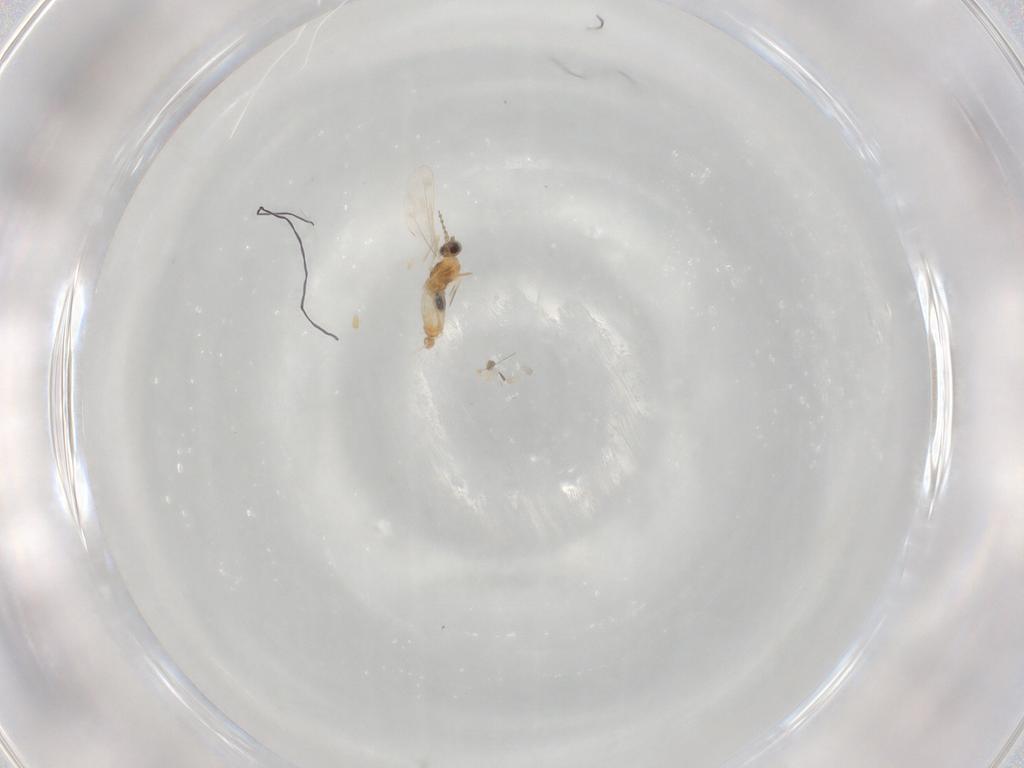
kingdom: Animalia
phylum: Arthropoda
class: Insecta
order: Diptera
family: Cecidomyiidae
